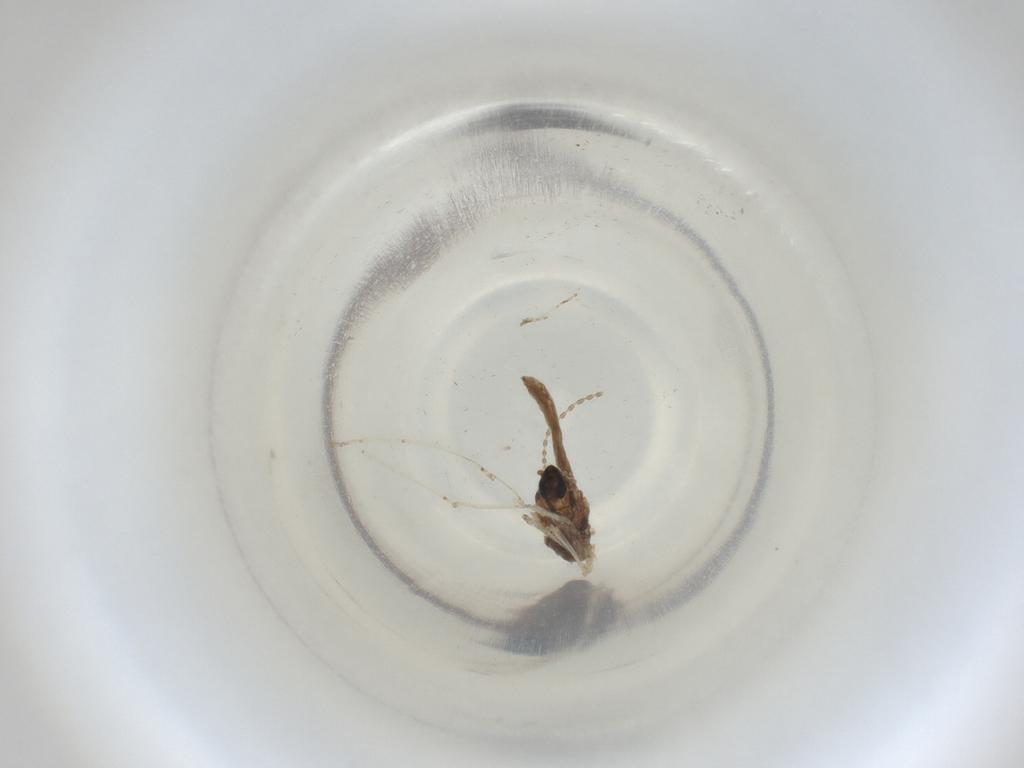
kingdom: Animalia
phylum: Arthropoda
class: Insecta
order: Diptera
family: Cecidomyiidae
